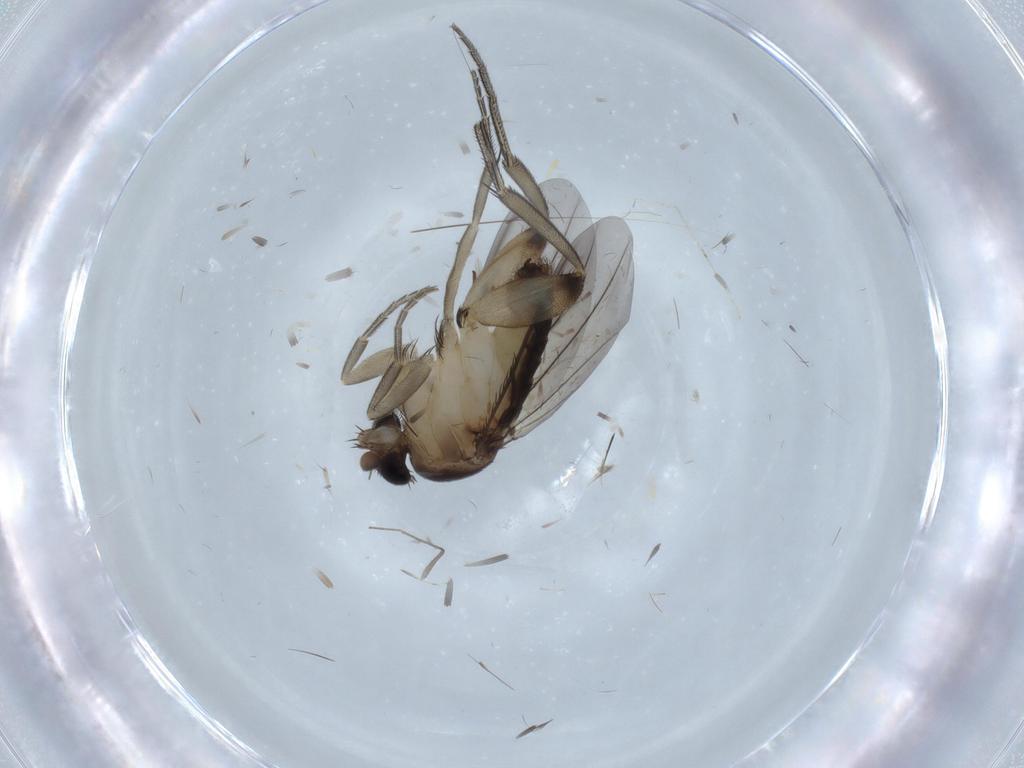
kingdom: Animalia
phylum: Arthropoda
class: Insecta
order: Diptera
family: Phoridae
